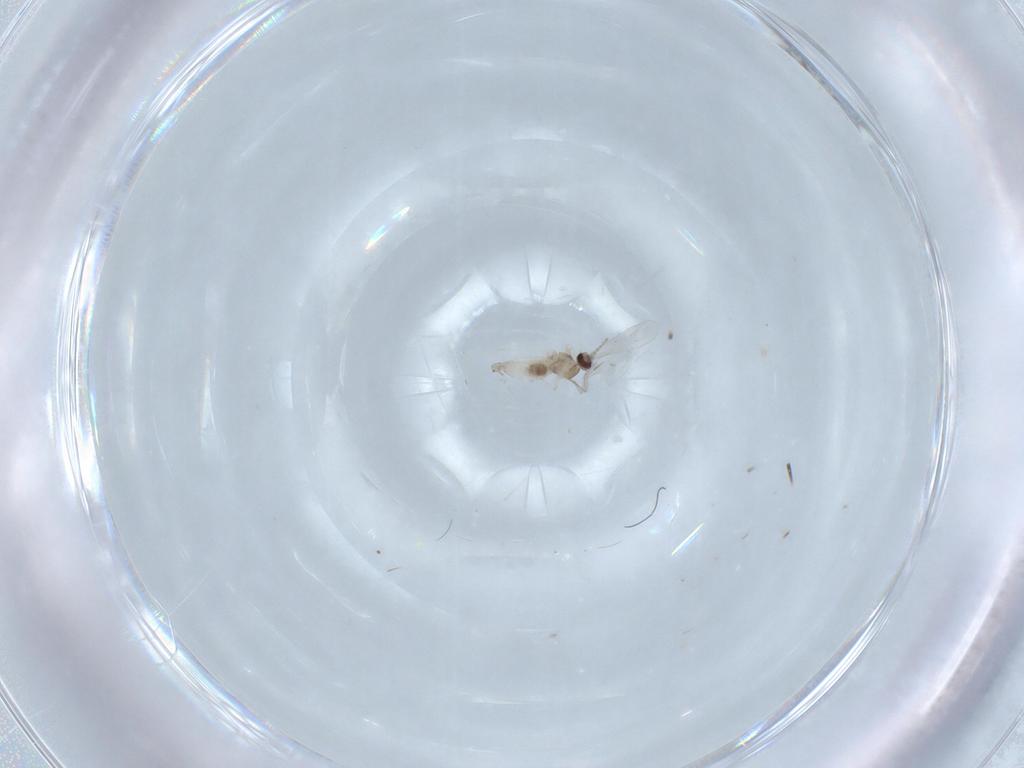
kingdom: Animalia
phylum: Arthropoda
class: Insecta
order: Diptera
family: Cecidomyiidae
